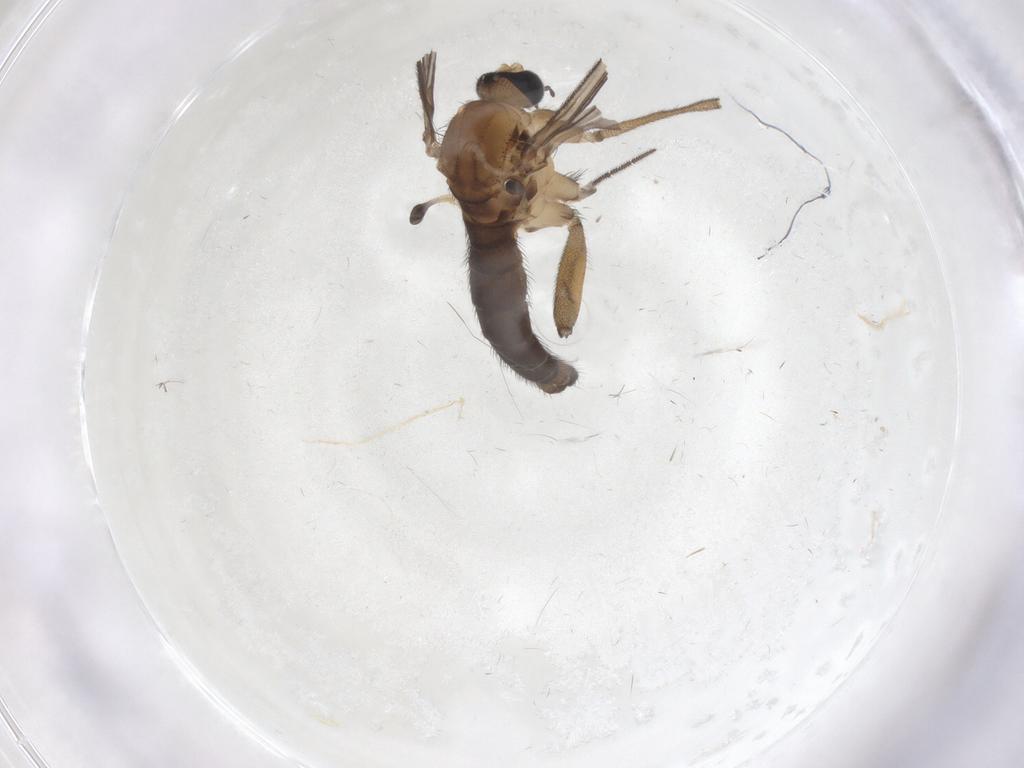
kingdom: Animalia
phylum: Arthropoda
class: Insecta
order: Diptera
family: Sciaridae
